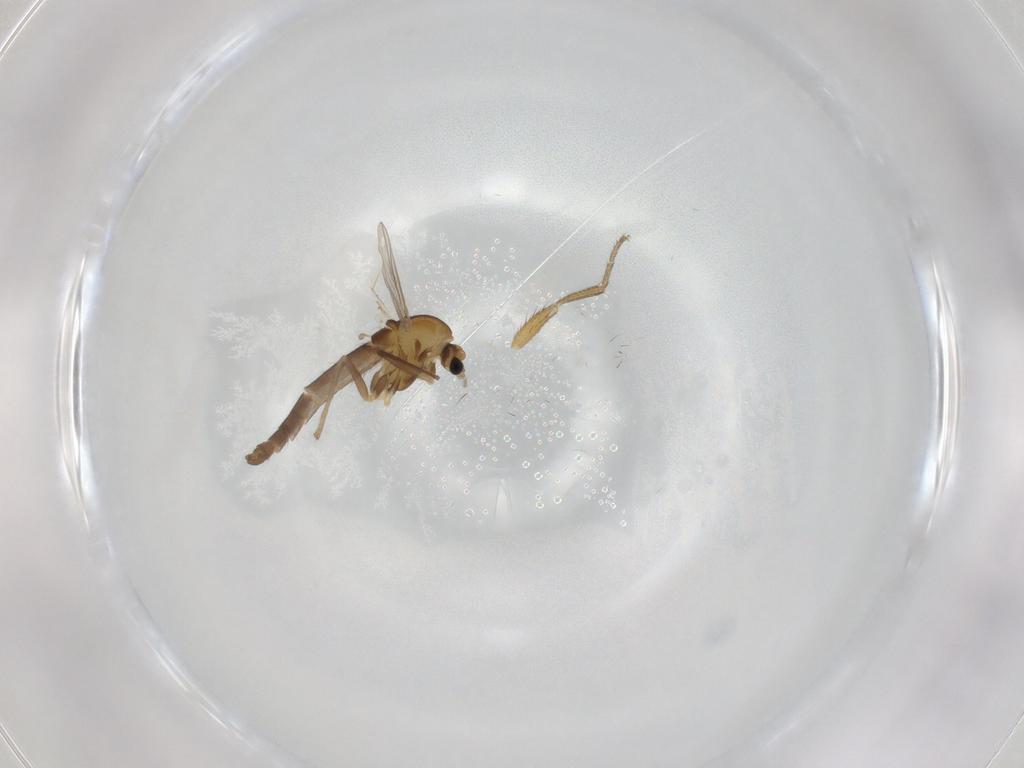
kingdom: Animalia
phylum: Arthropoda
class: Insecta
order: Diptera
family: Chironomidae
